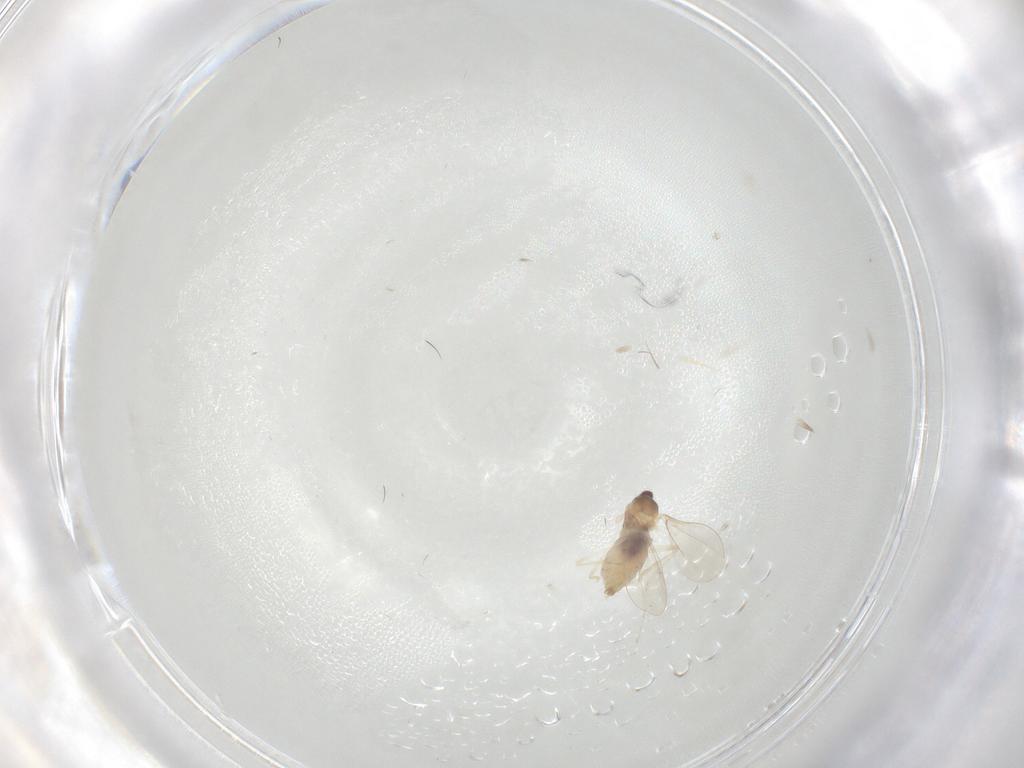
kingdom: Animalia
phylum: Arthropoda
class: Insecta
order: Diptera
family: Cecidomyiidae
